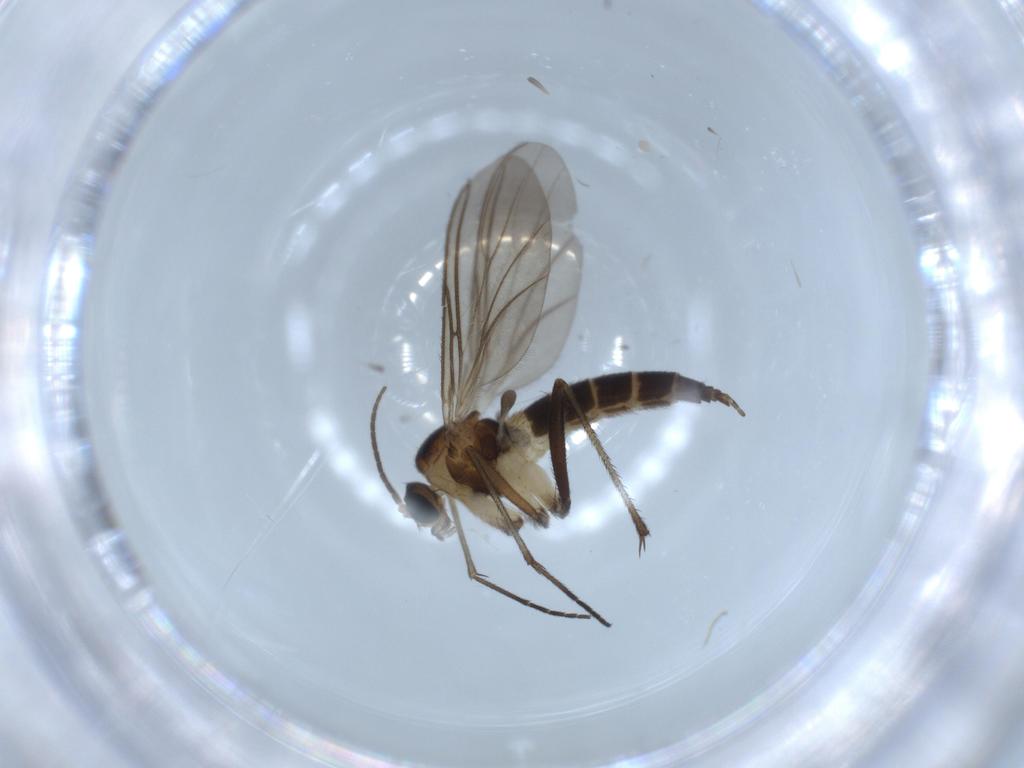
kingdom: Animalia
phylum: Arthropoda
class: Insecta
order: Diptera
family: Sciaridae
